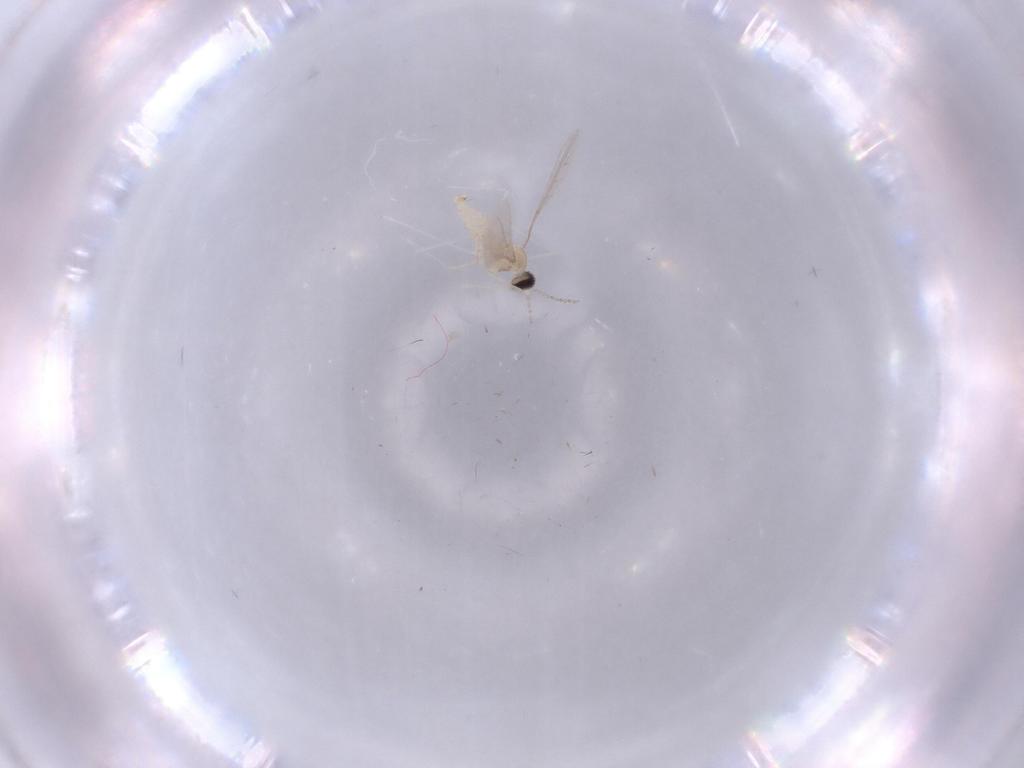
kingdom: Animalia
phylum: Arthropoda
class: Insecta
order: Diptera
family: Cecidomyiidae
